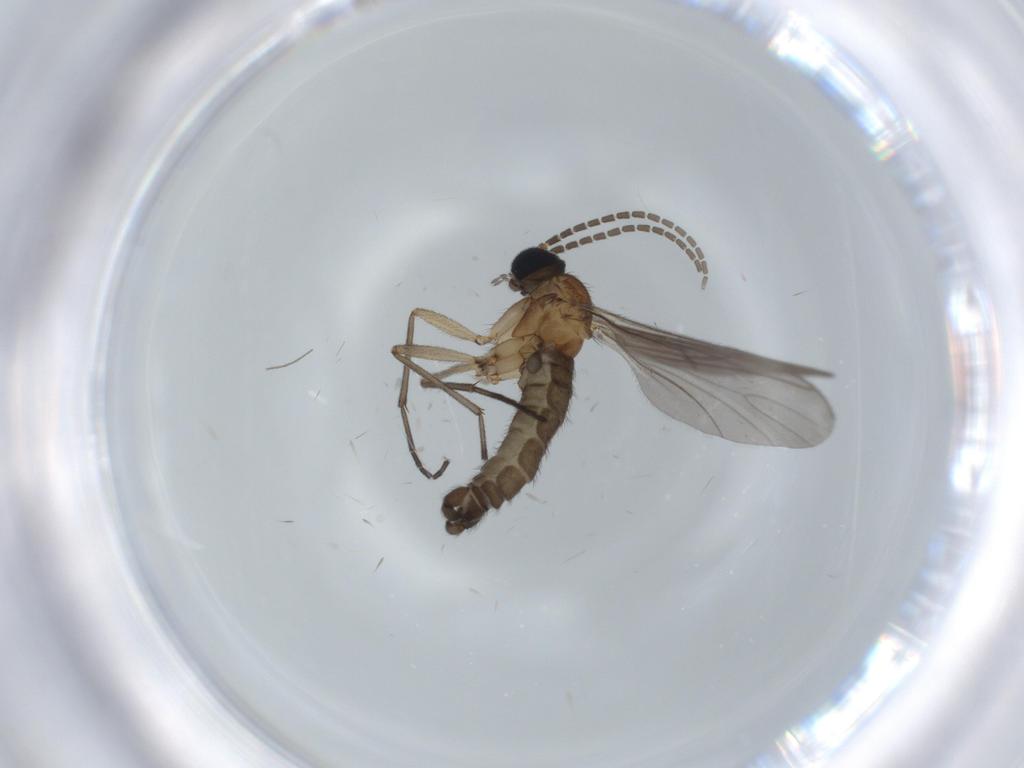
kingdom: Animalia
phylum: Arthropoda
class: Insecta
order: Diptera
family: Sciaridae
